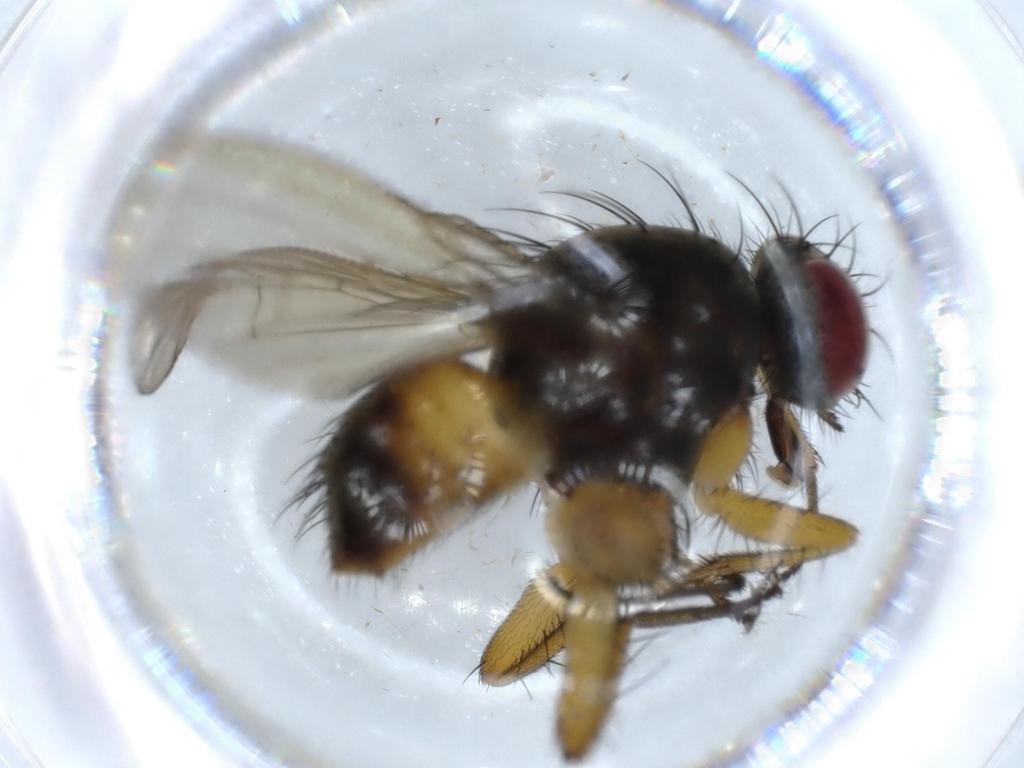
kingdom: Animalia
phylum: Arthropoda
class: Insecta
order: Diptera
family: Muscidae
